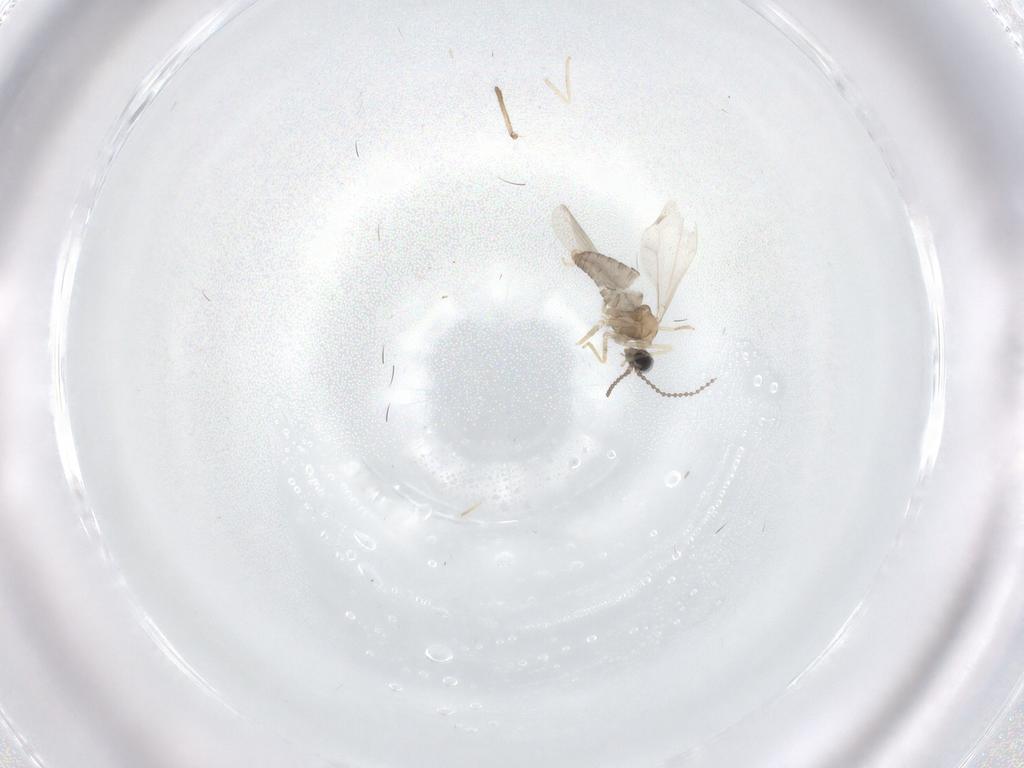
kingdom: Animalia
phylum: Arthropoda
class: Insecta
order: Diptera
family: Cecidomyiidae
